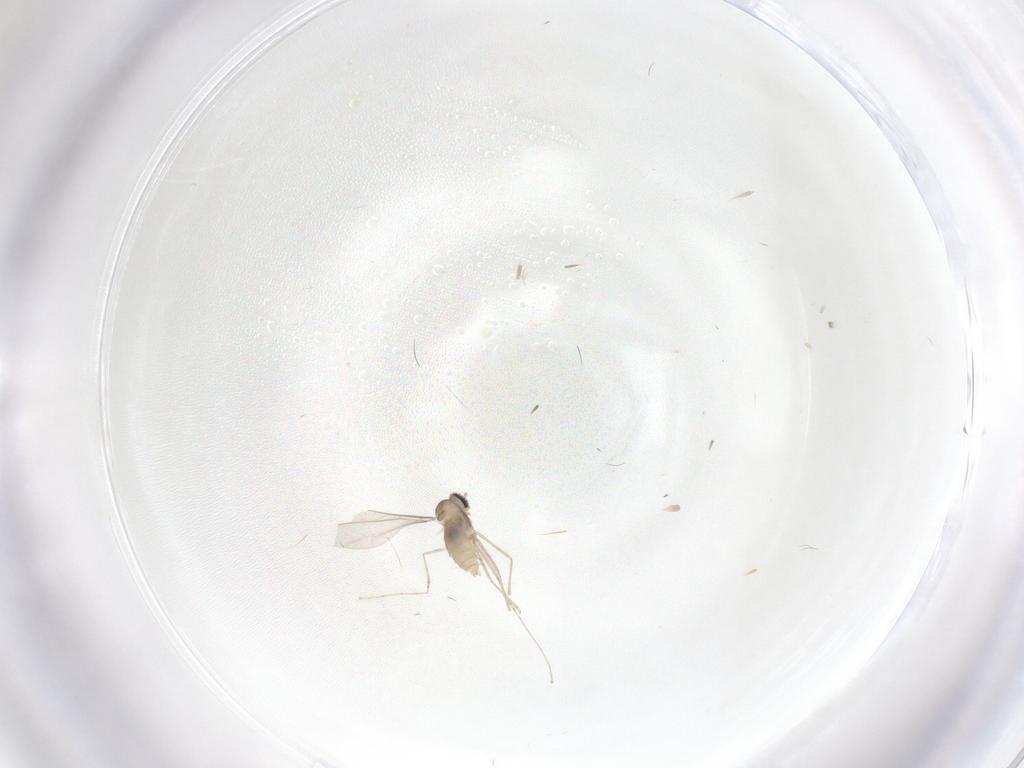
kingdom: Animalia
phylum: Arthropoda
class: Insecta
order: Diptera
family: Cecidomyiidae
